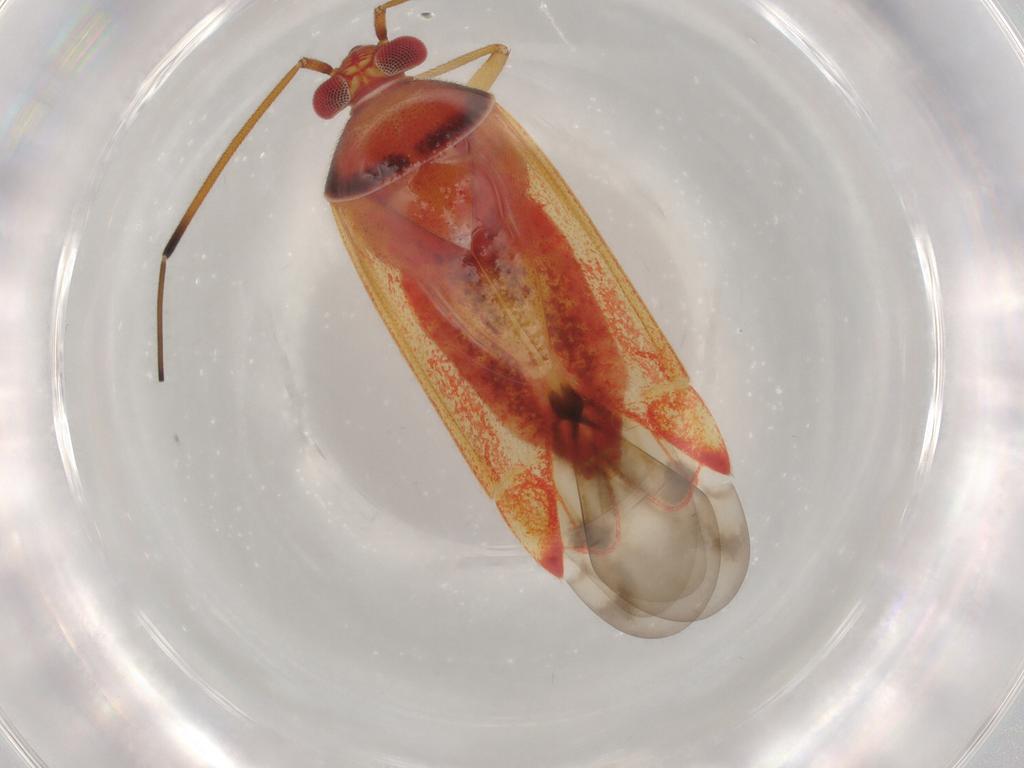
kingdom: Animalia
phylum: Arthropoda
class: Insecta
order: Hemiptera
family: Miridae
